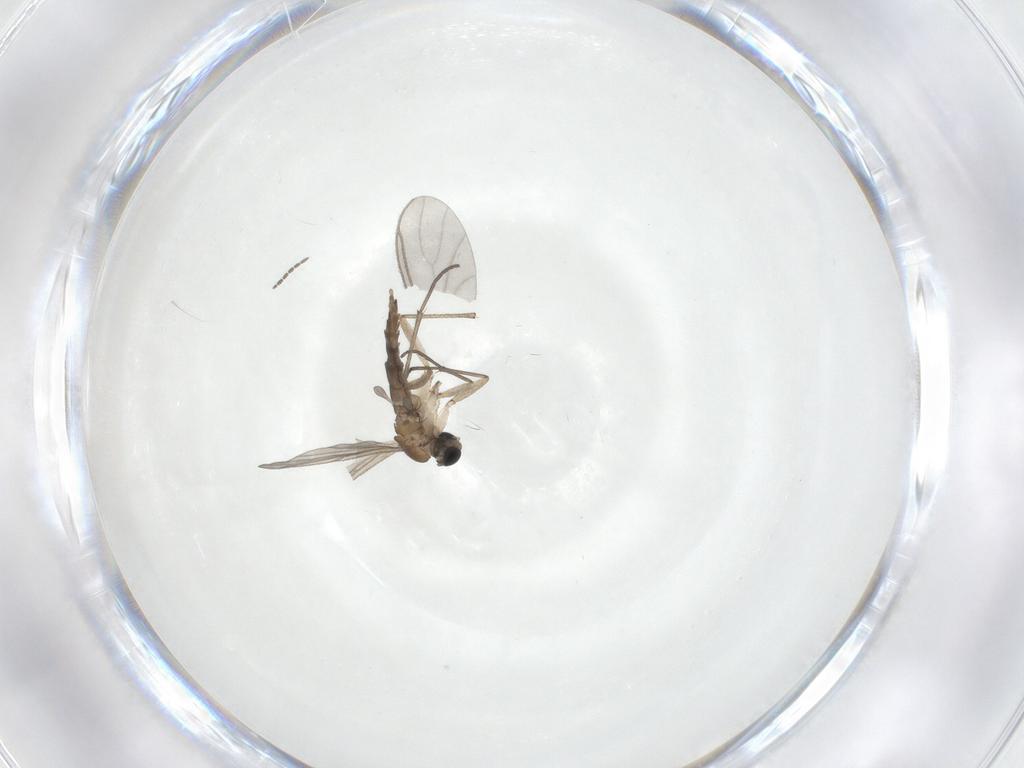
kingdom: Animalia
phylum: Arthropoda
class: Insecta
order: Diptera
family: Sciaridae
